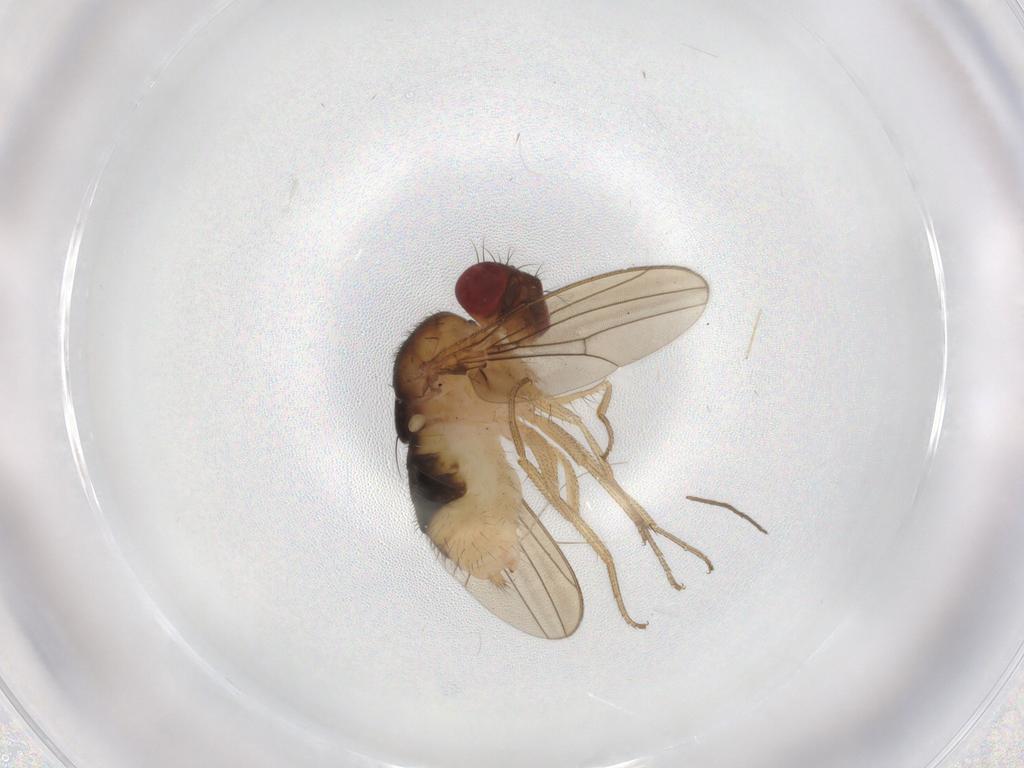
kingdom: Animalia
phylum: Arthropoda
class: Insecta
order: Diptera
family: Drosophilidae
